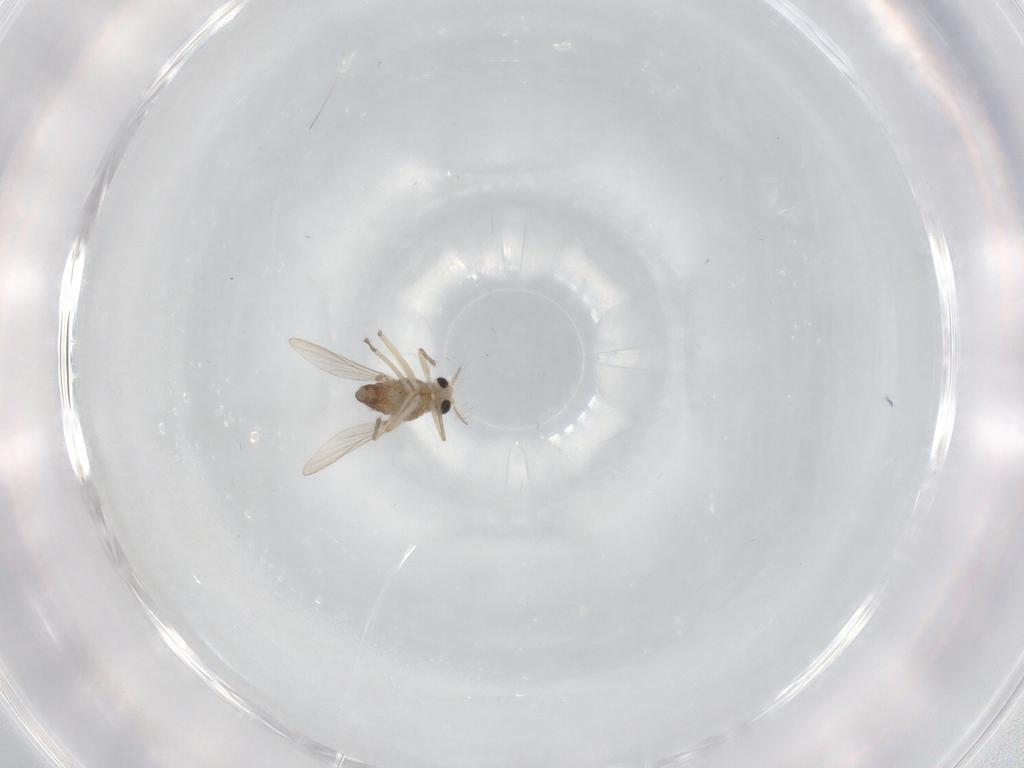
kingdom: Animalia
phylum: Arthropoda
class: Insecta
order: Diptera
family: Chironomidae
